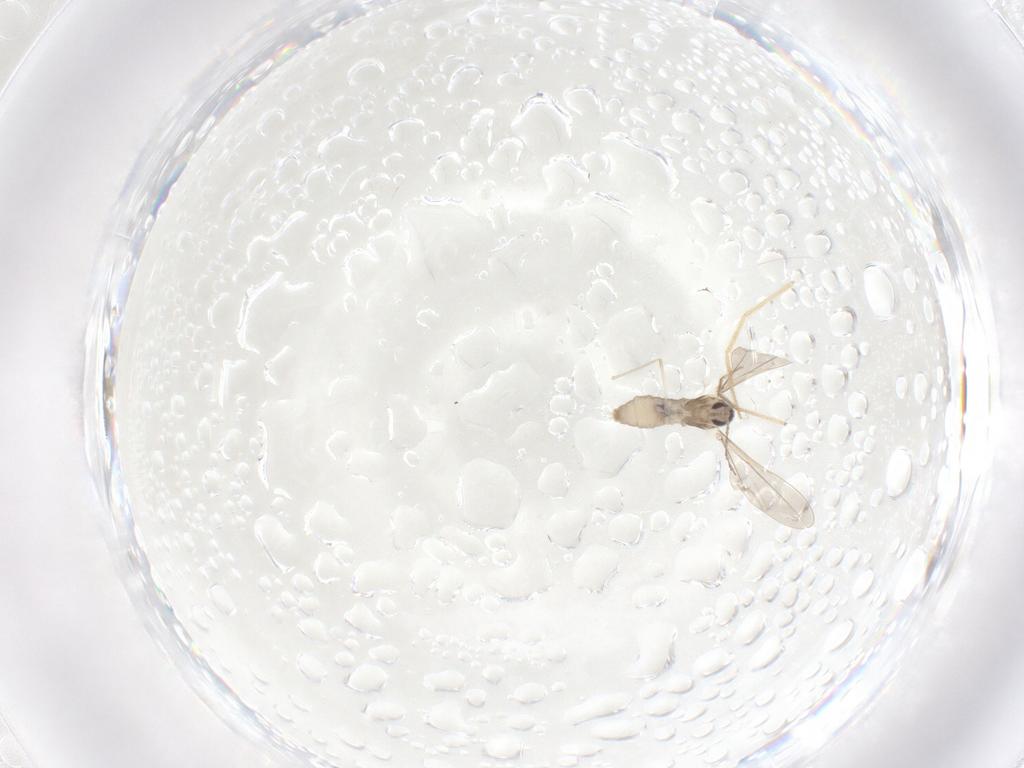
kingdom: Animalia
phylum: Arthropoda
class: Insecta
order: Diptera
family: Cecidomyiidae
